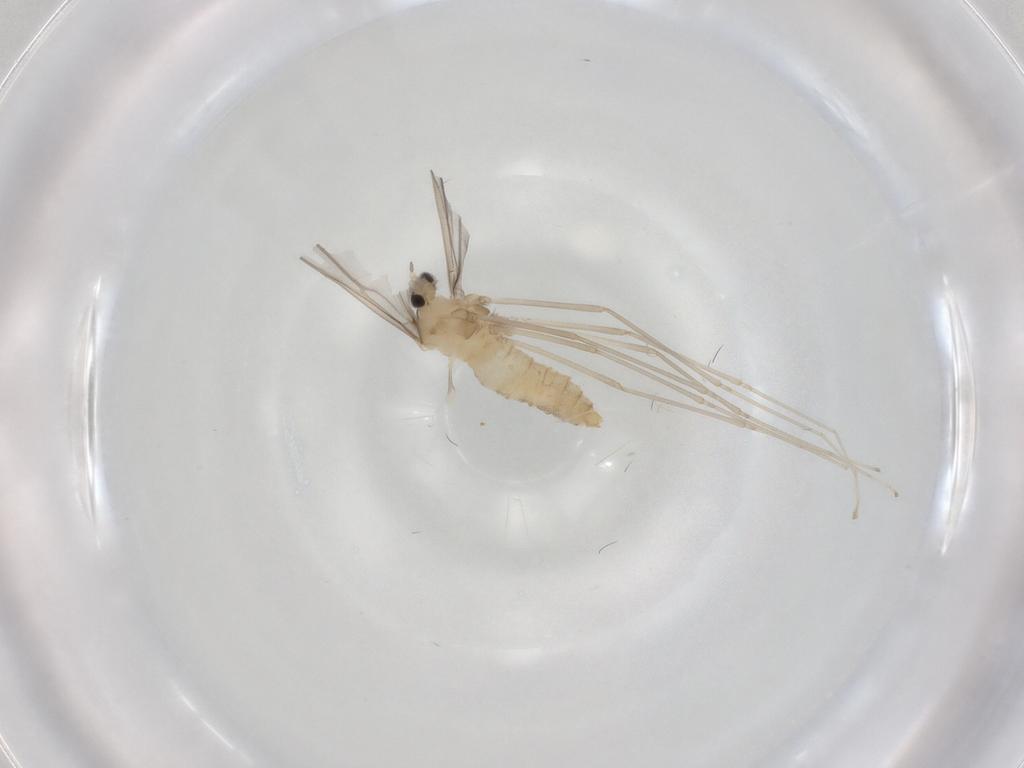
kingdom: Animalia
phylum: Arthropoda
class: Insecta
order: Diptera
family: Cecidomyiidae
